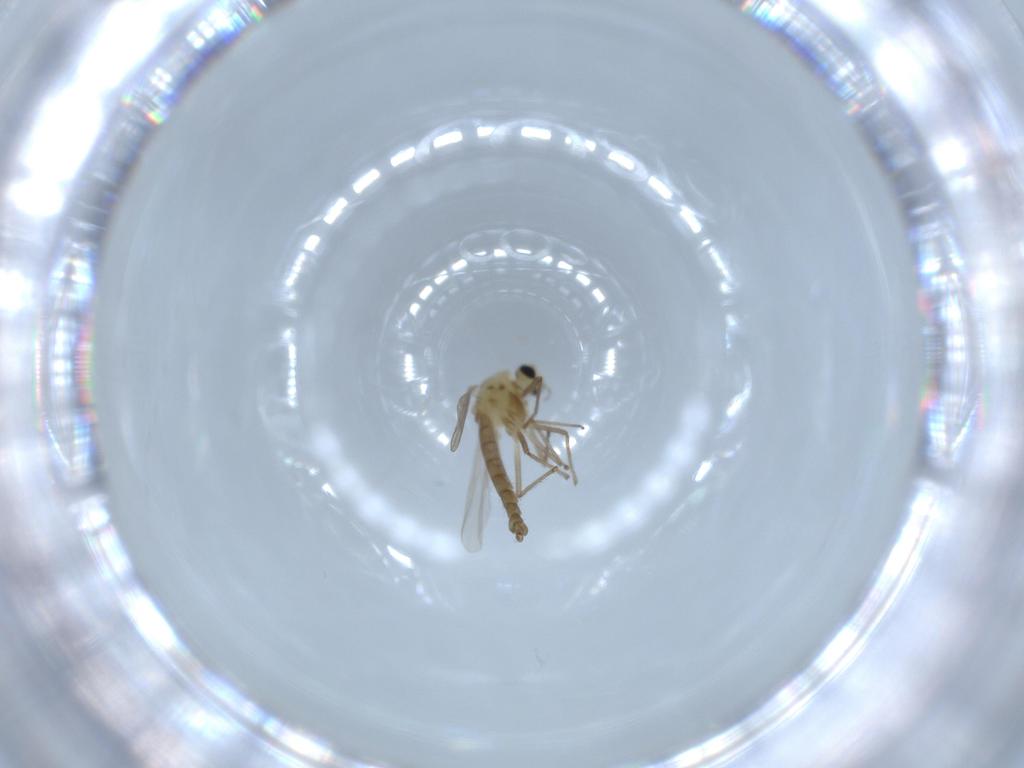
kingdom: Animalia
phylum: Arthropoda
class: Insecta
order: Diptera
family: Chironomidae
